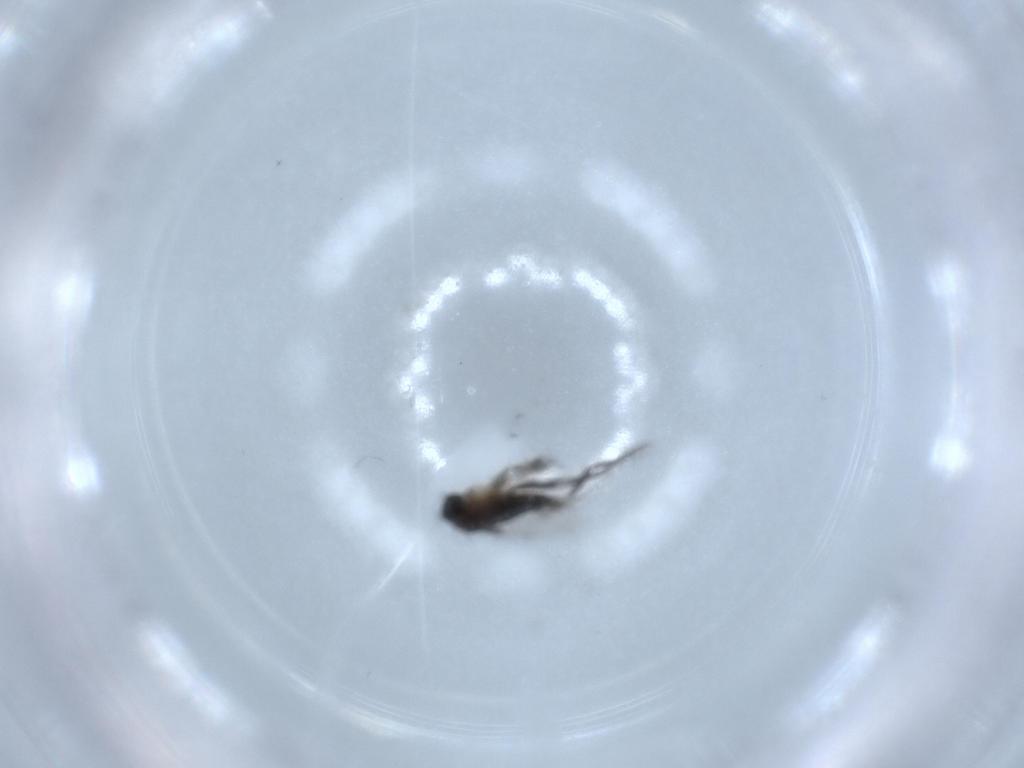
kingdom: Animalia
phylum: Arthropoda
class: Insecta
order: Diptera
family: Phoridae
